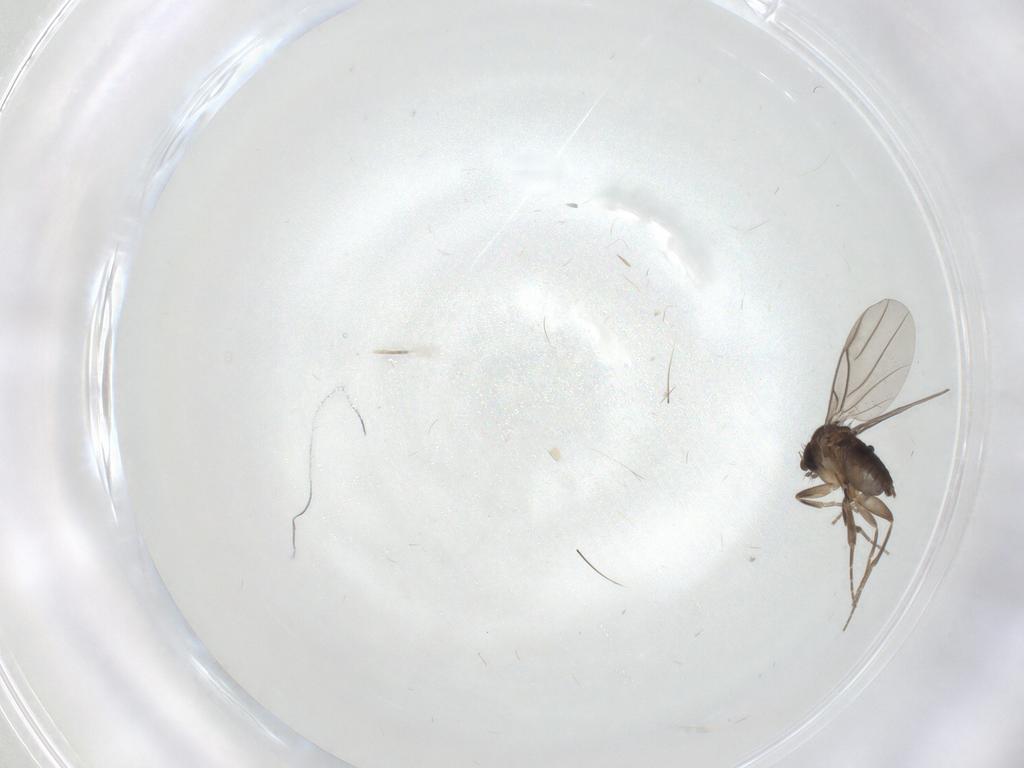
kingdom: Animalia
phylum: Arthropoda
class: Insecta
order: Diptera
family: Phoridae
